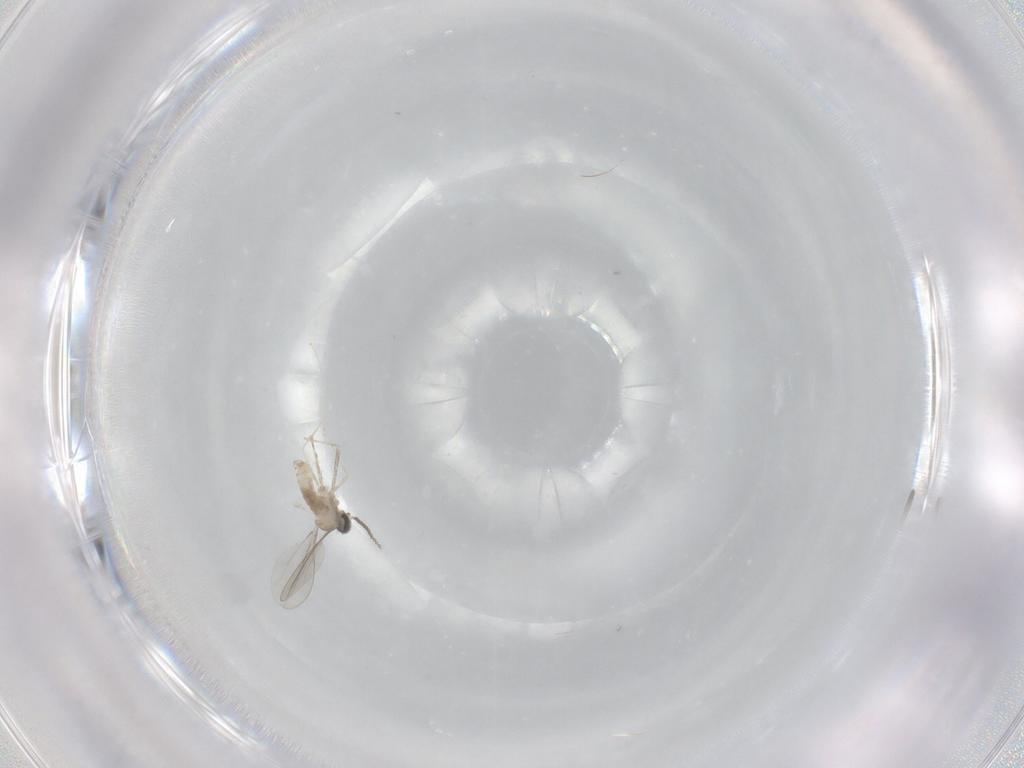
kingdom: Animalia
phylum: Arthropoda
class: Insecta
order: Diptera
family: Cecidomyiidae
